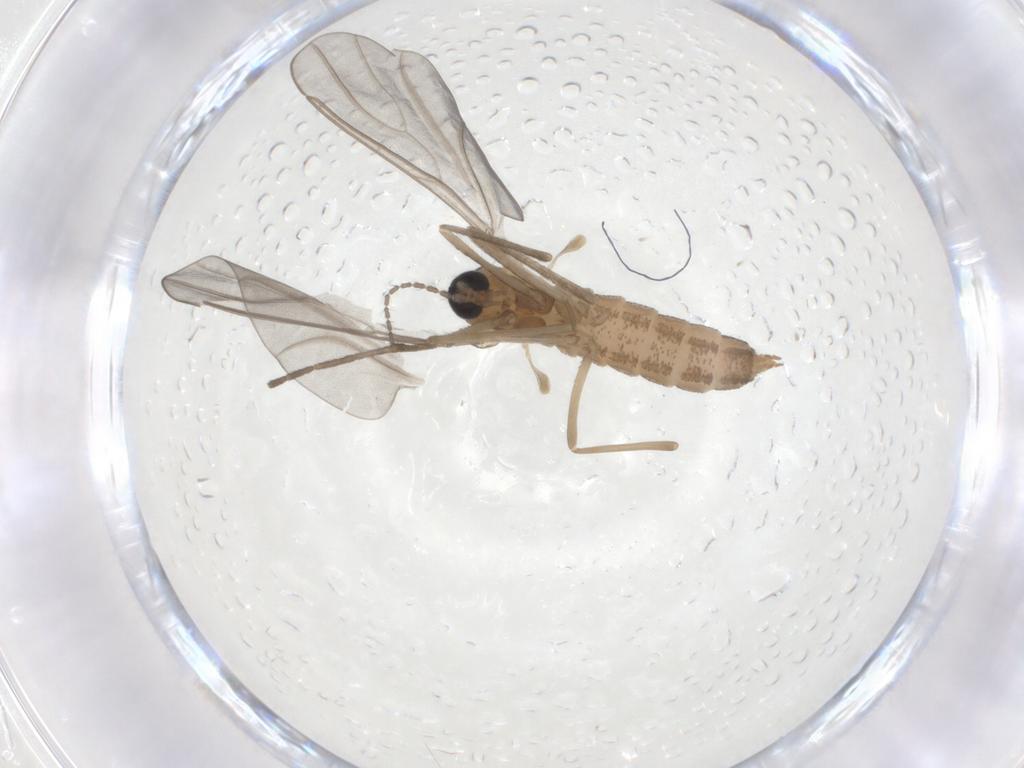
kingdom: Animalia
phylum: Arthropoda
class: Insecta
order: Diptera
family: Cecidomyiidae
